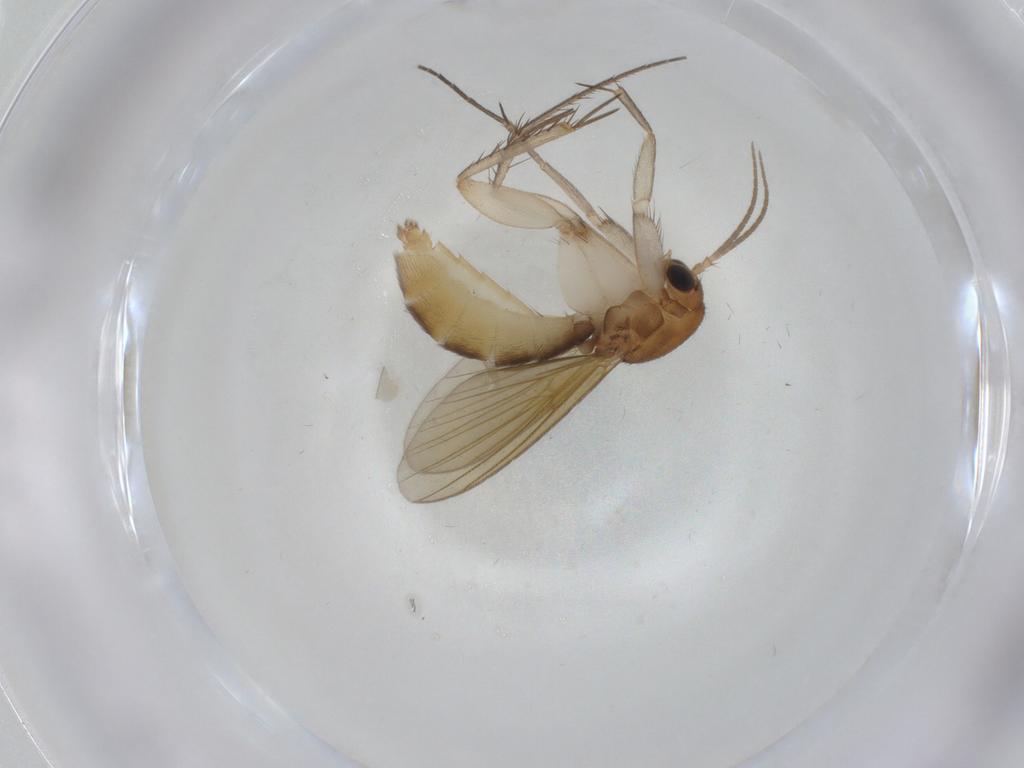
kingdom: Animalia
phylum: Arthropoda
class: Insecta
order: Diptera
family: Mycetophilidae
